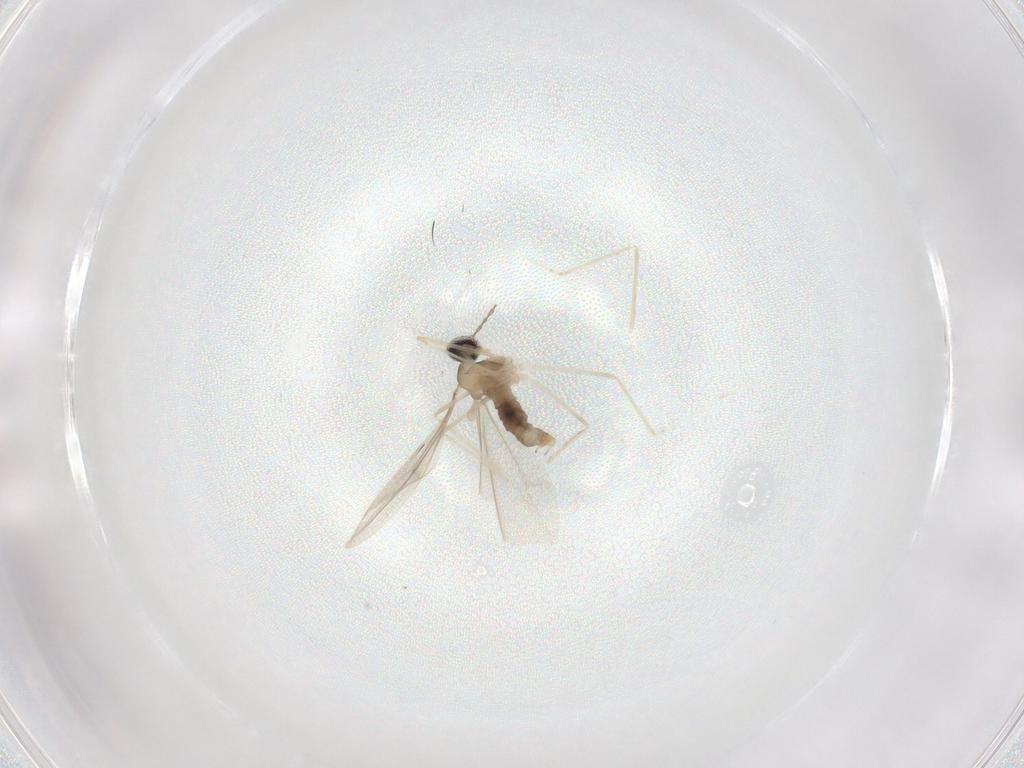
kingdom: Animalia
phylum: Arthropoda
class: Insecta
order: Diptera
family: Cecidomyiidae
